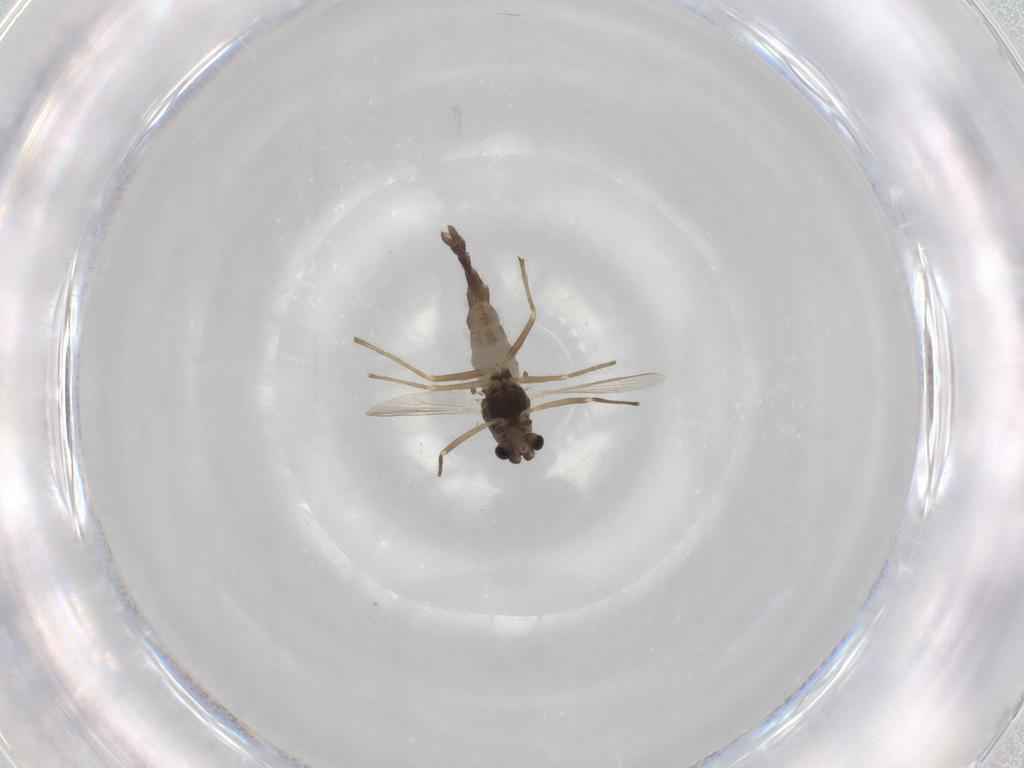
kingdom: Animalia
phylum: Arthropoda
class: Insecta
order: Diptera
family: Chironomidae
